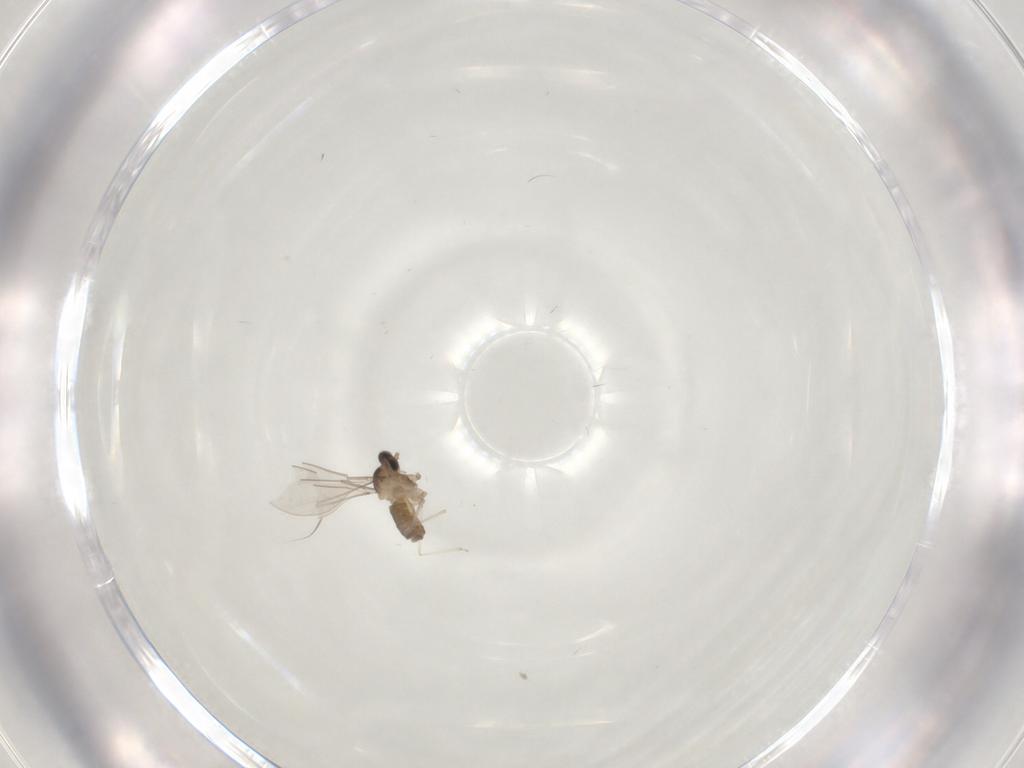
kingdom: Animalia
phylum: Arthropoda
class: Insecta
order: Diptera
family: Cecidomyiidae
